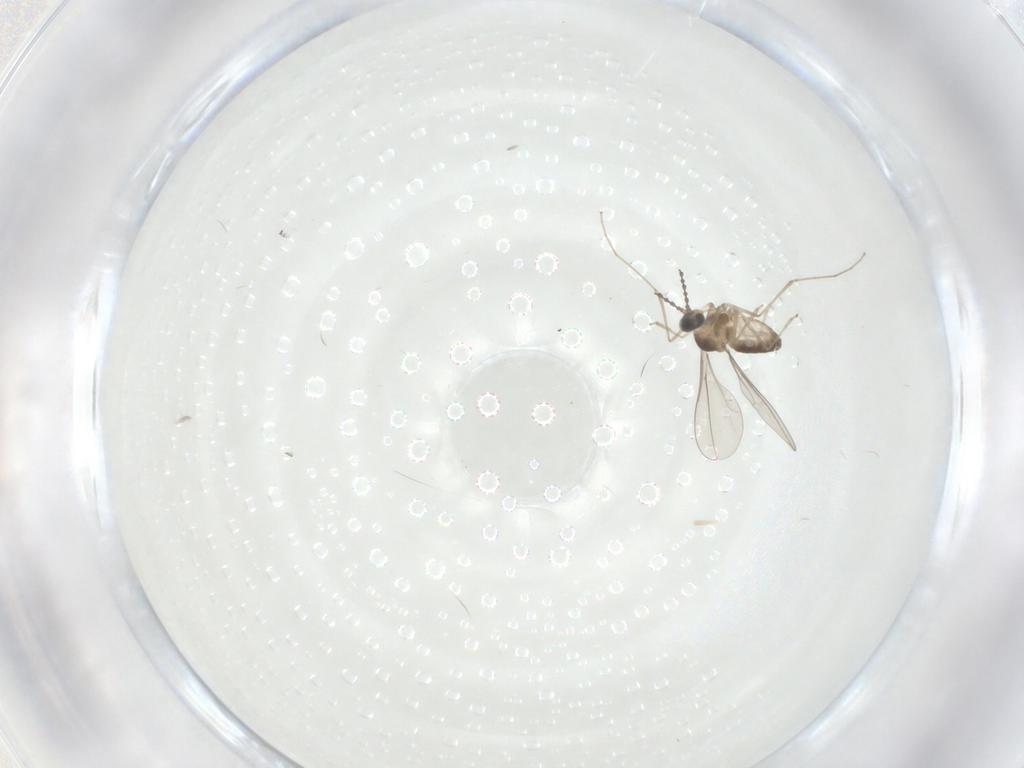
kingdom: Animalia
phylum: Arthropoda
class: Insecta
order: Diptera
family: Cecidomyiidae
